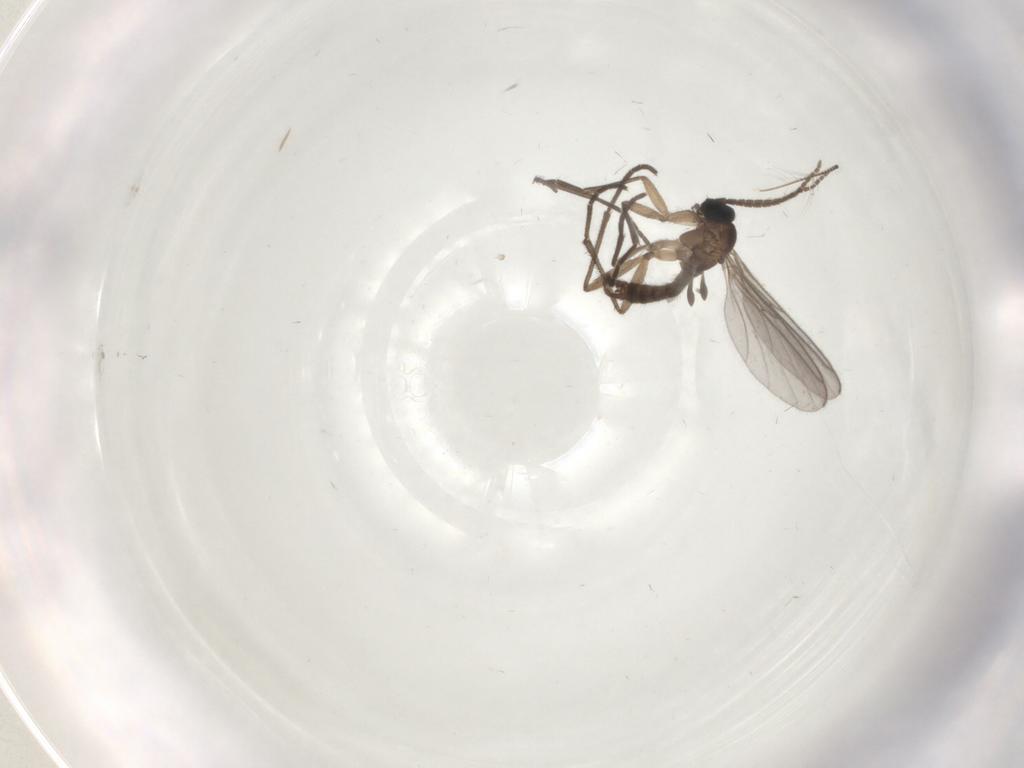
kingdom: Animalia
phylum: Arthropoda
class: Insecta
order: Diptera
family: Sciaridae
